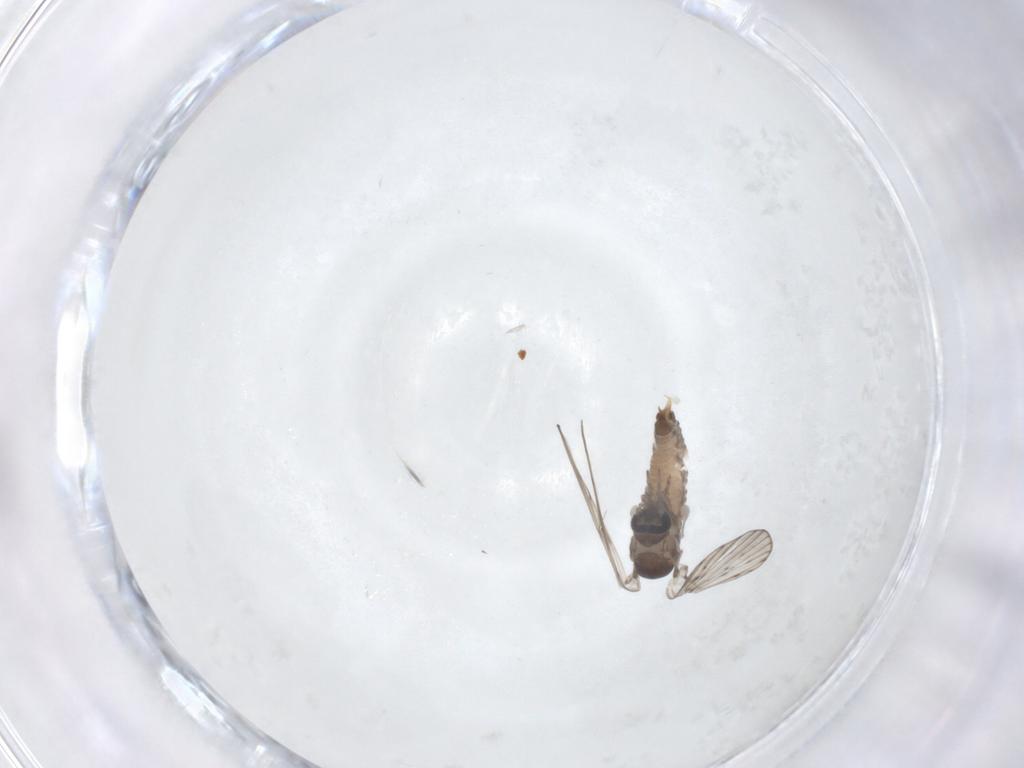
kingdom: Animalia
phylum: Arthropoda
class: Insecta
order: Diptera
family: Psychodidae
